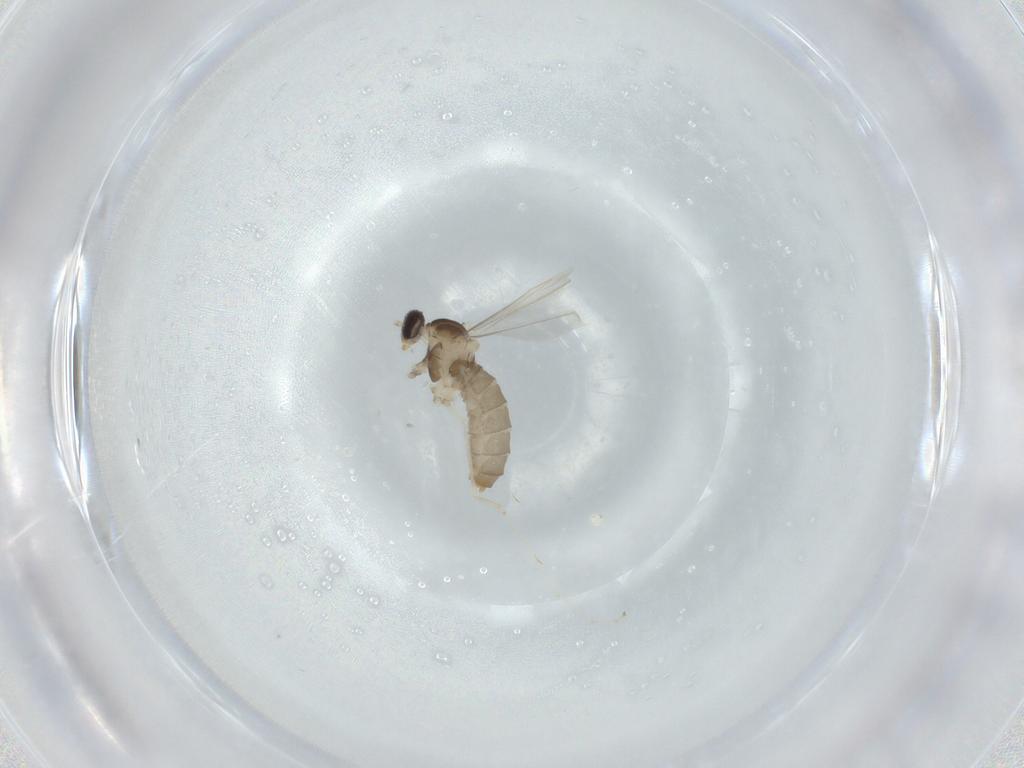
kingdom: Animalia
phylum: Arthropoda
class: Insecta
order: Diptera
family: Cecidomyiidae
